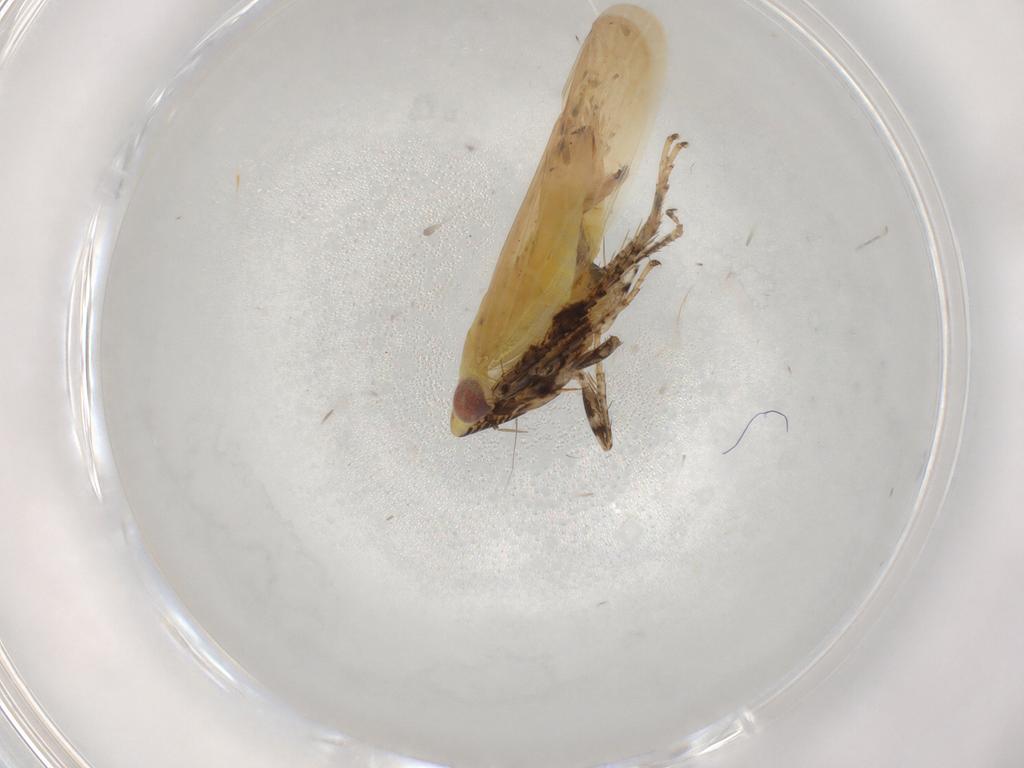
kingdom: Animalia
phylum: Arthropoda
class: Insecta
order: Hemiptera
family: Cicadellidae
